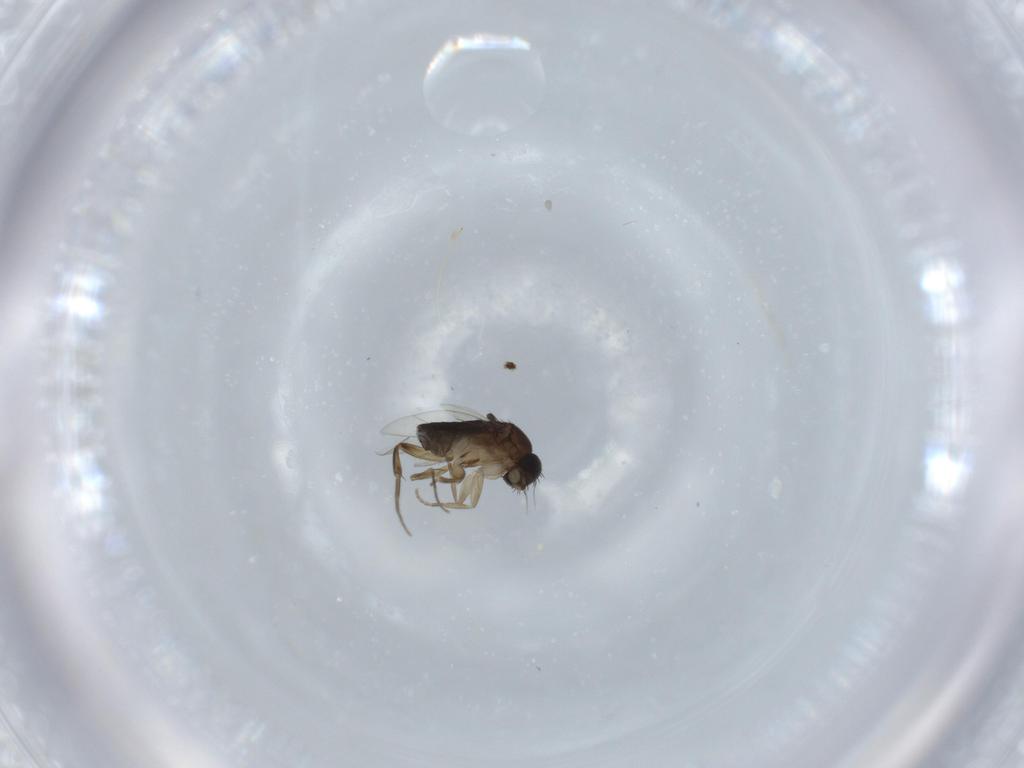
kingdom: Animalia
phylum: Arthropoda
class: Insecta
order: Diptera
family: Phoridae
